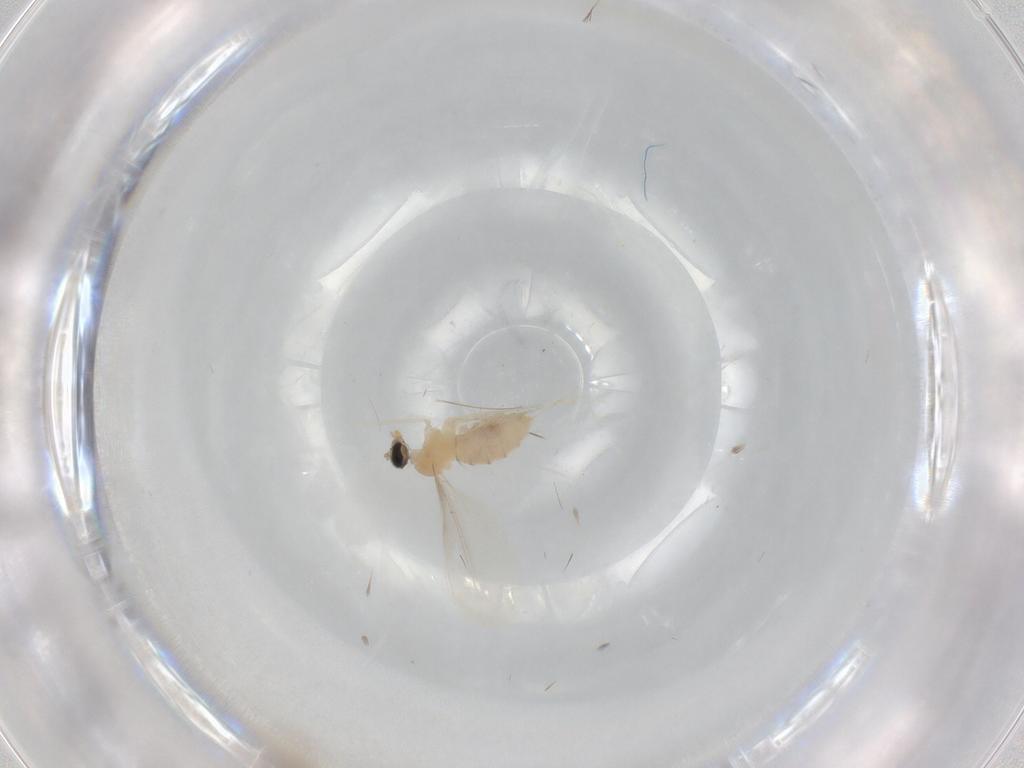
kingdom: Animalia
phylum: Arthropoda
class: Insecta
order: Diptera
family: Cecidomyiidae
